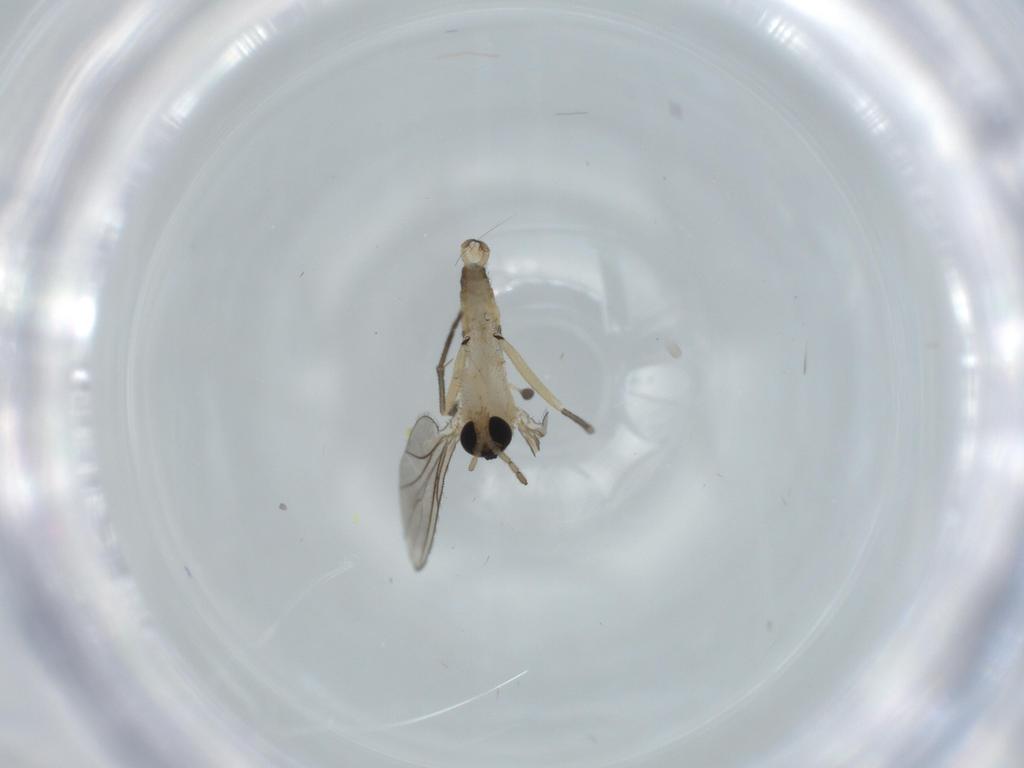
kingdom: Animalia
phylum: Arthropoda
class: Insecta
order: Diptera
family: Sciaridae
